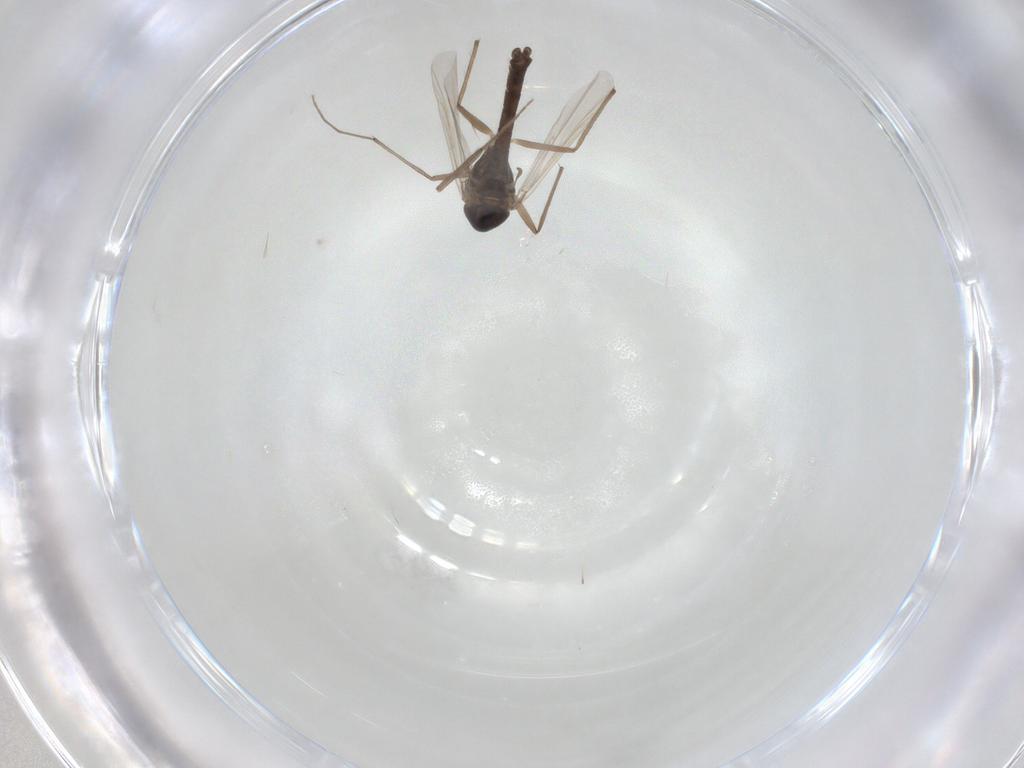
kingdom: Animalia
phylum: Arthropoda
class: Insecta
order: Diptera
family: Chironomidae
